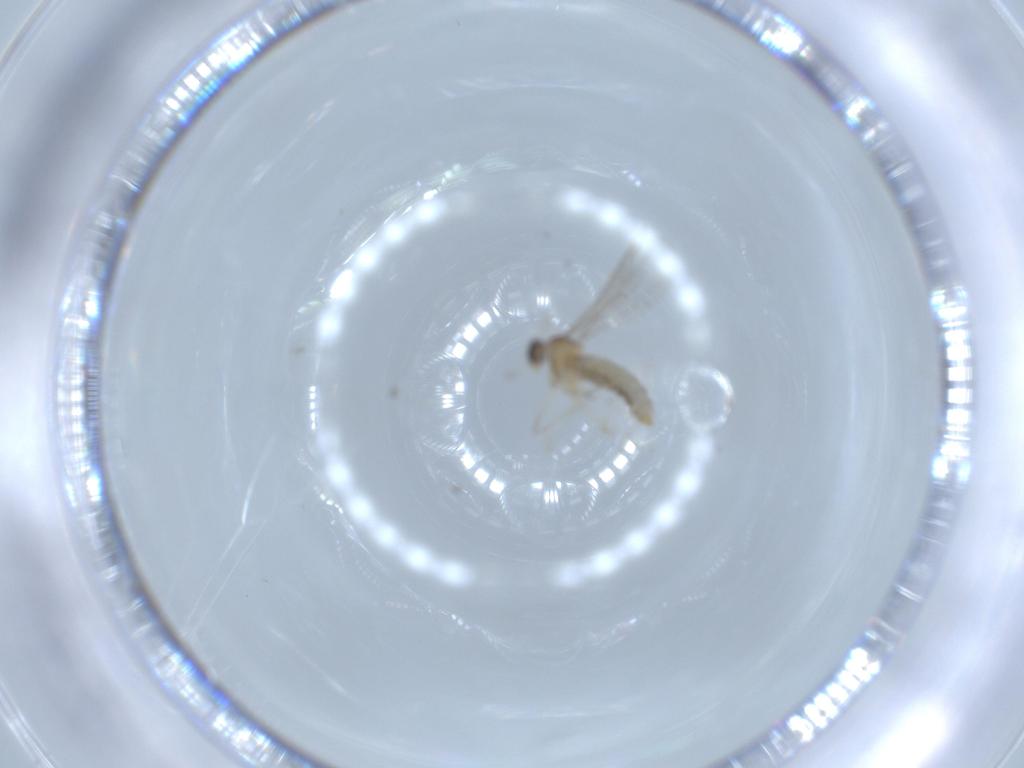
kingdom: Animalia
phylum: Arthropoda
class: Insecta
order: Diptera
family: Cecidomyiidae
